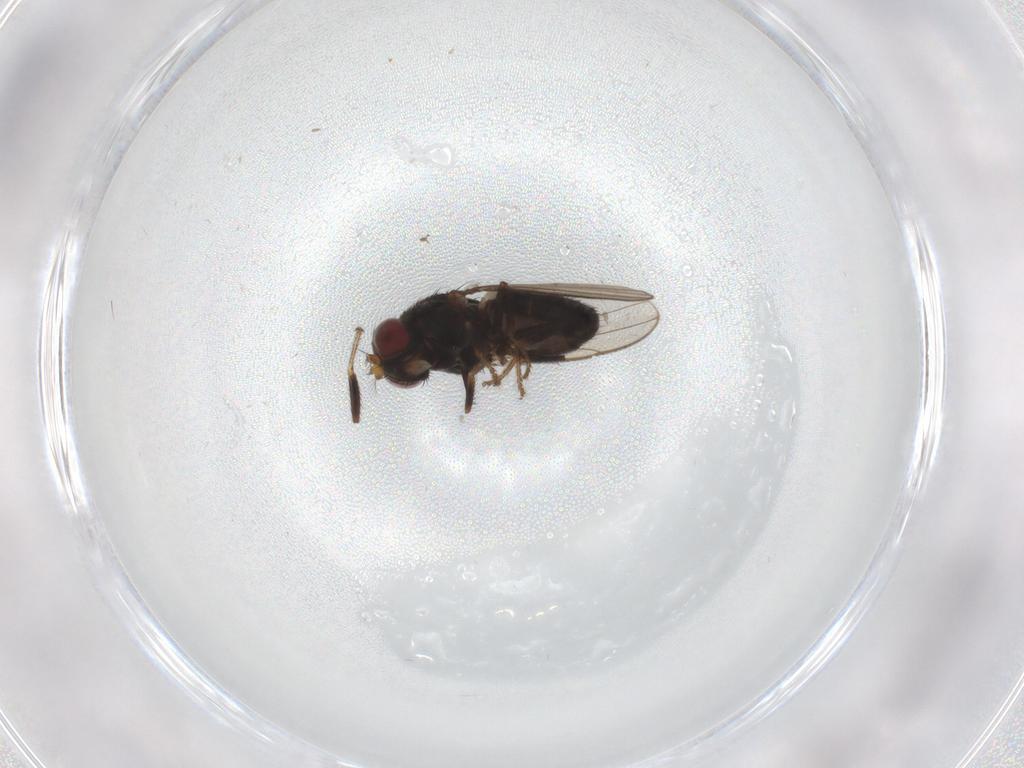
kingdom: Animalia
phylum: Arthropoda
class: Insecta
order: Diptera
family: Ephydridae
